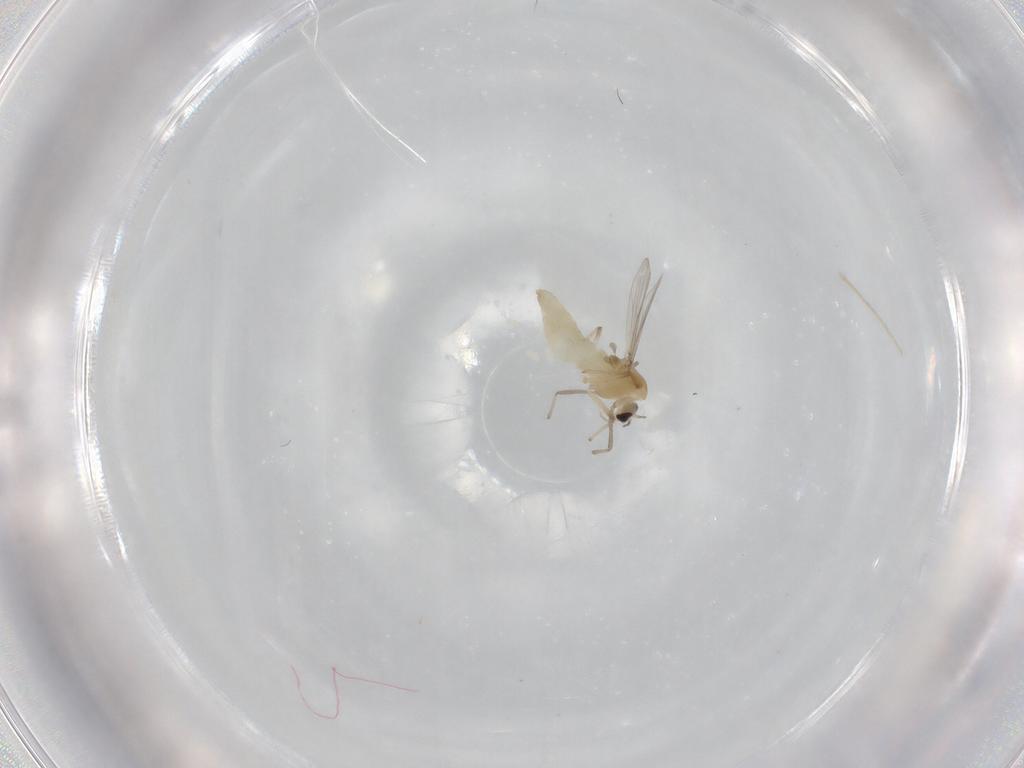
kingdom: Animalia
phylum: Arthropoda
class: Insecta
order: Diptera
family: Chironomidae
